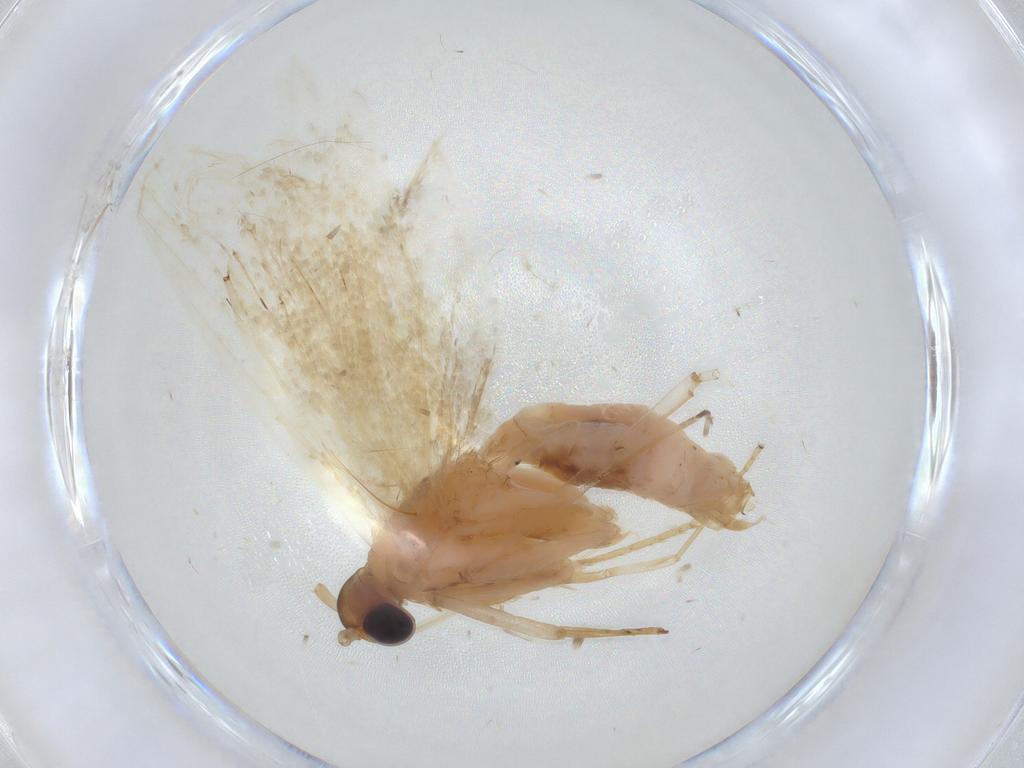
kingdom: Animalia
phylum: Arthropoda
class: Insecta
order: Lepidoptera
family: Lecithoceridae
